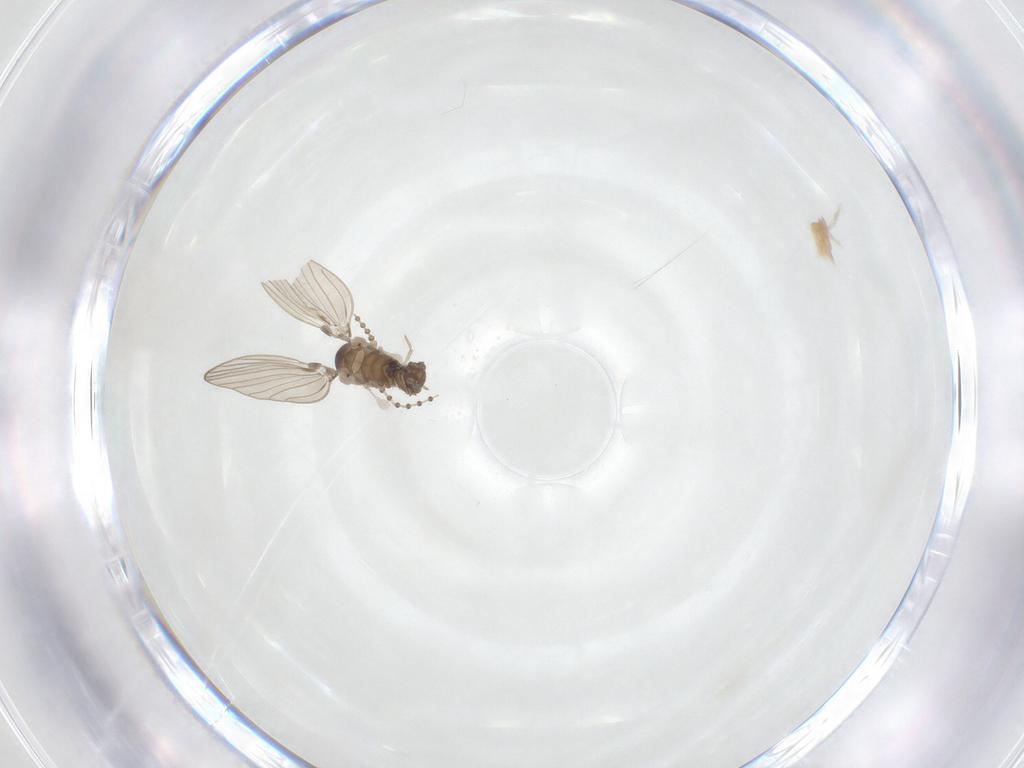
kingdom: Animalia
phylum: Arthropoda
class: Insecta
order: Diptera
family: Psychodidae
